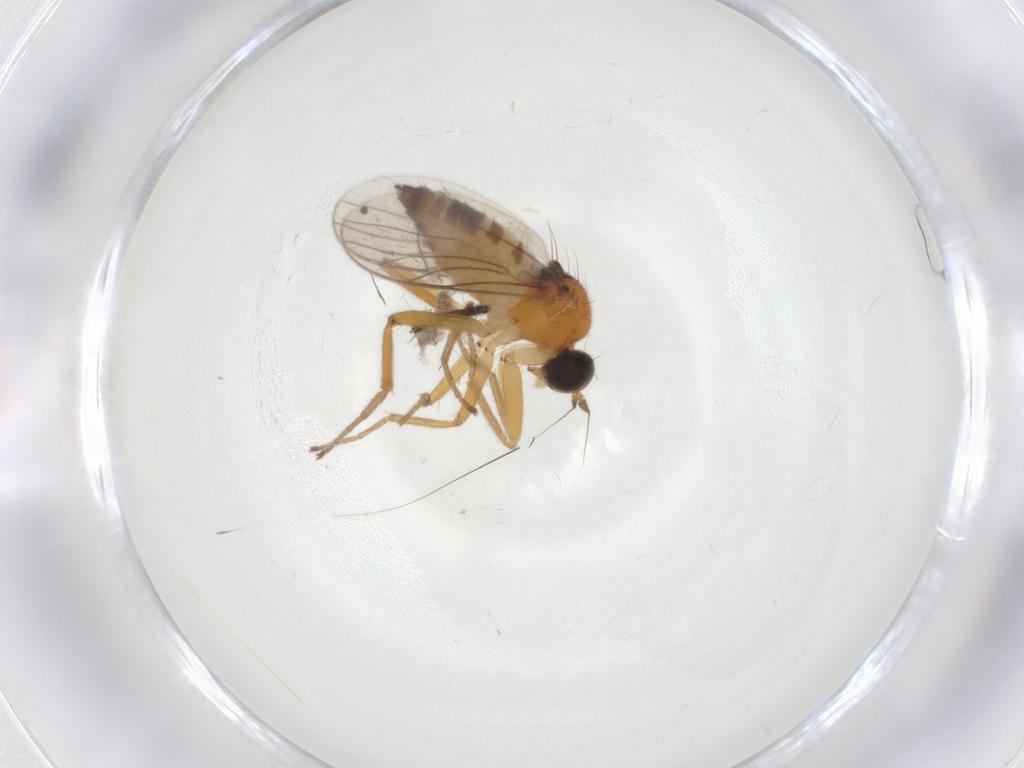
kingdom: Animalia
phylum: Arthropoda
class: Insecta
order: Diptera
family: Hybotidae
